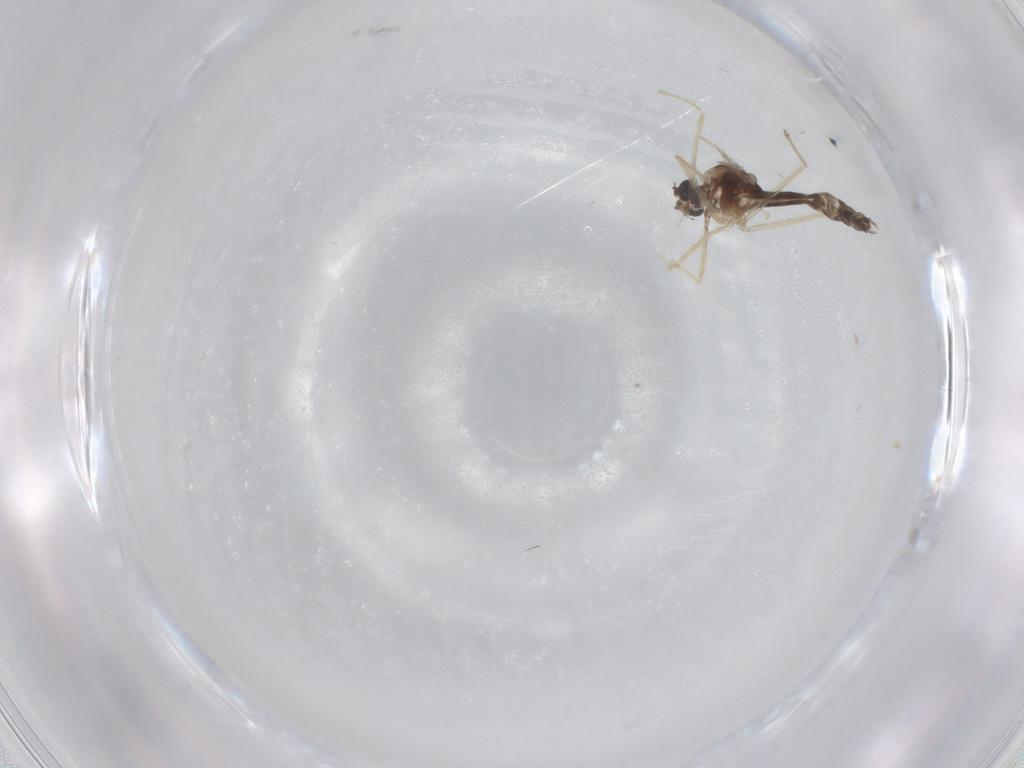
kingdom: Animalia
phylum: Arthropoda
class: Insecta
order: Diptera
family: Chironomidae
